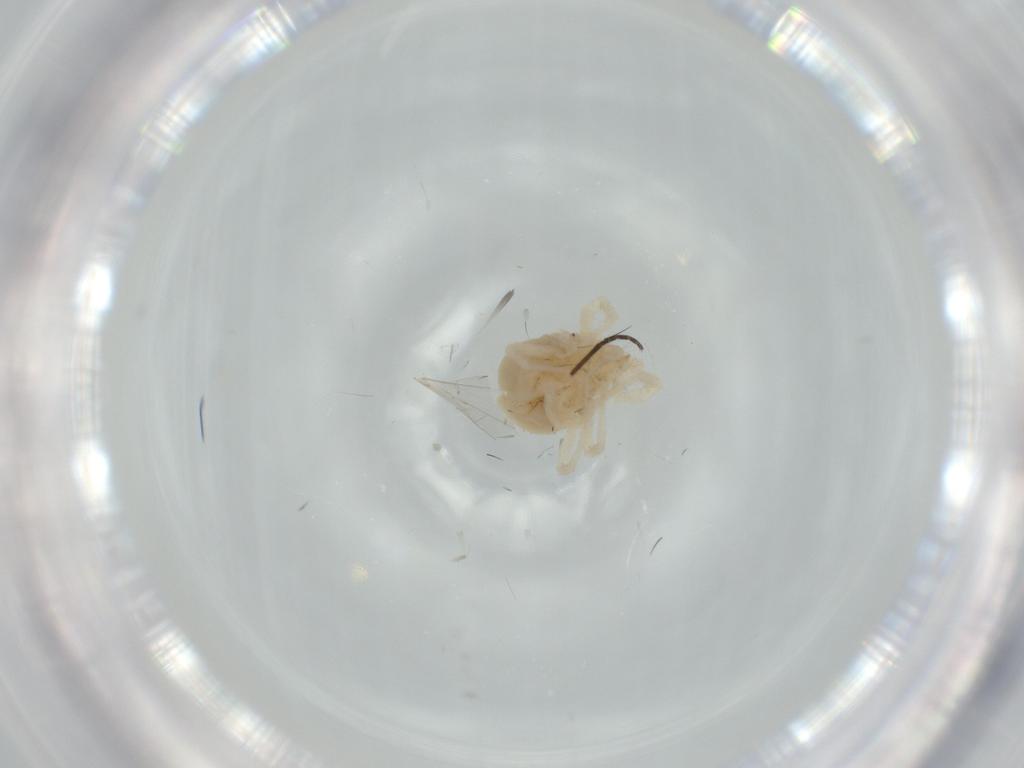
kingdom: Animalia
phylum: Arthropoda
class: Arachnida
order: Trombidiformes
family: Anystidae
